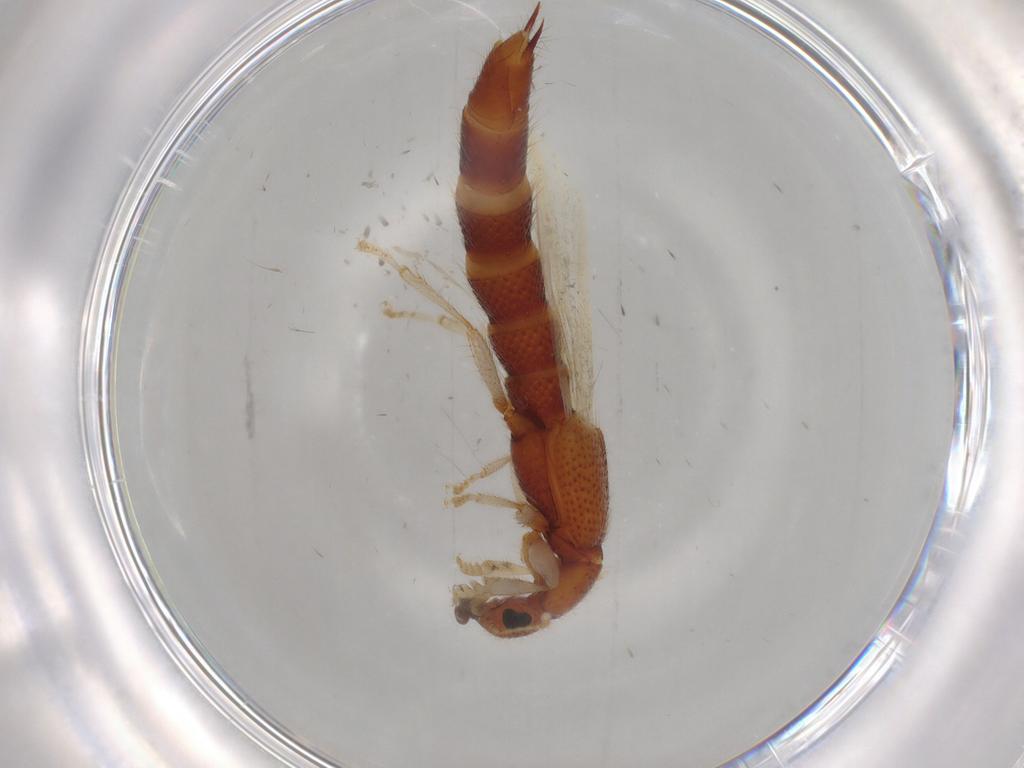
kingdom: Animalia
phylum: Arthropoda
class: Insecta
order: Coleoptera
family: Staphylinidae
